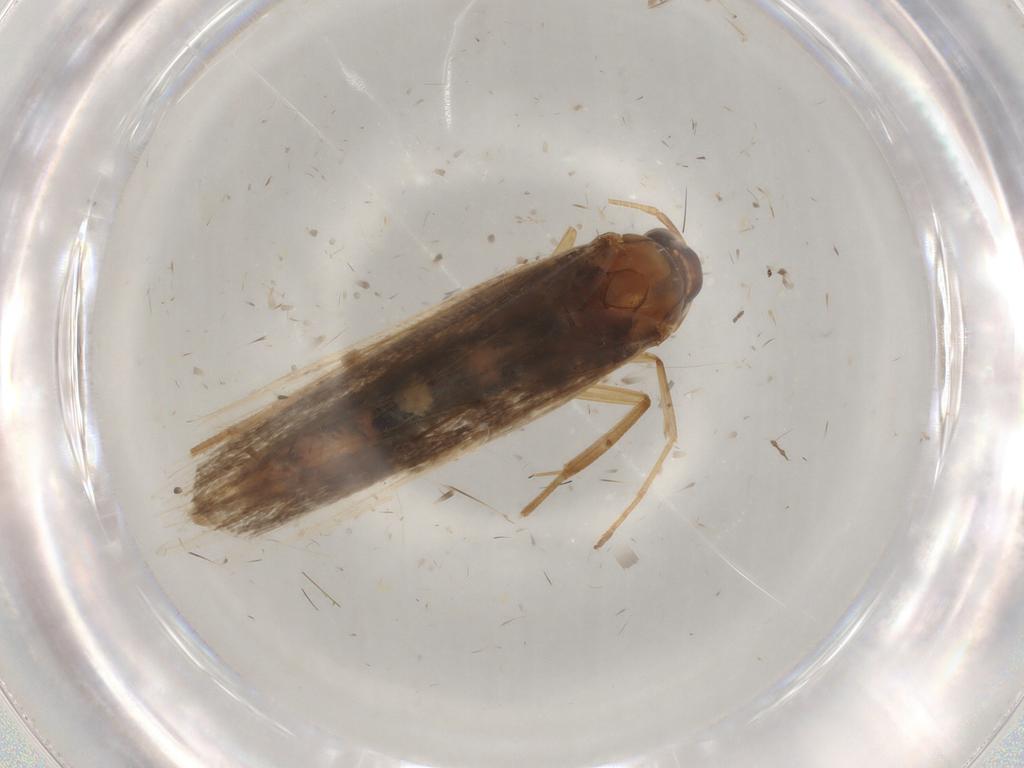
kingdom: Animalia
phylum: Arthropoda
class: Insecta
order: Lepidoptera
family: Gelechiidae
